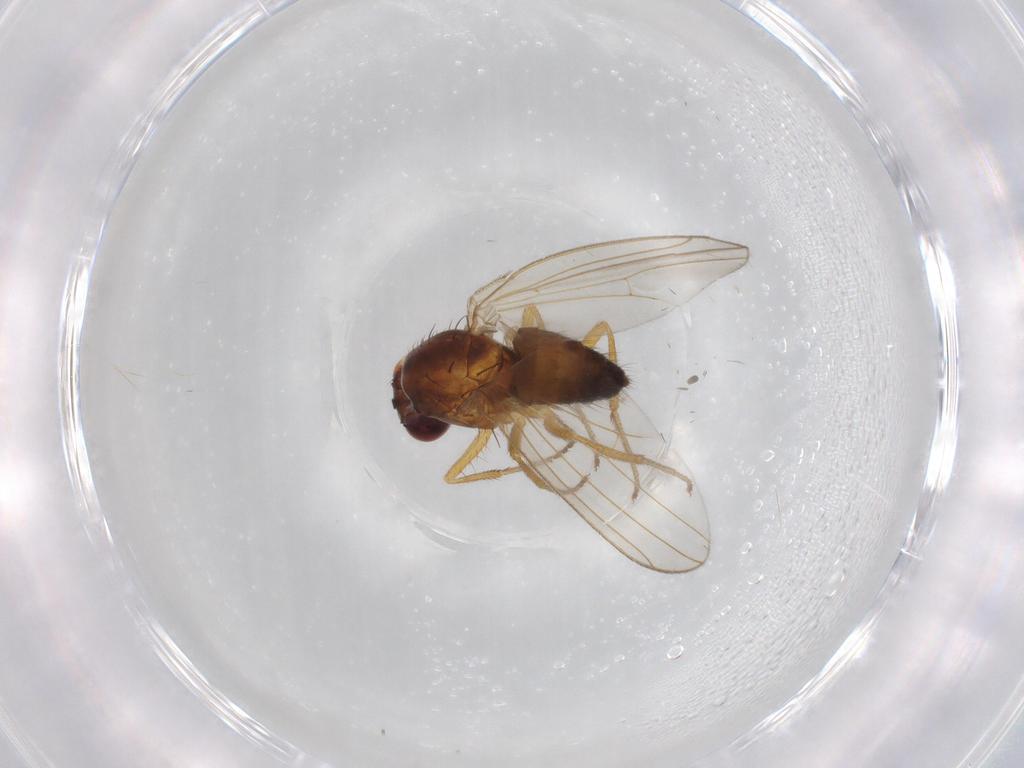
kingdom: Animalia
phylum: Arthropoda
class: Insecta
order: Diptera
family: Drosophilidae
